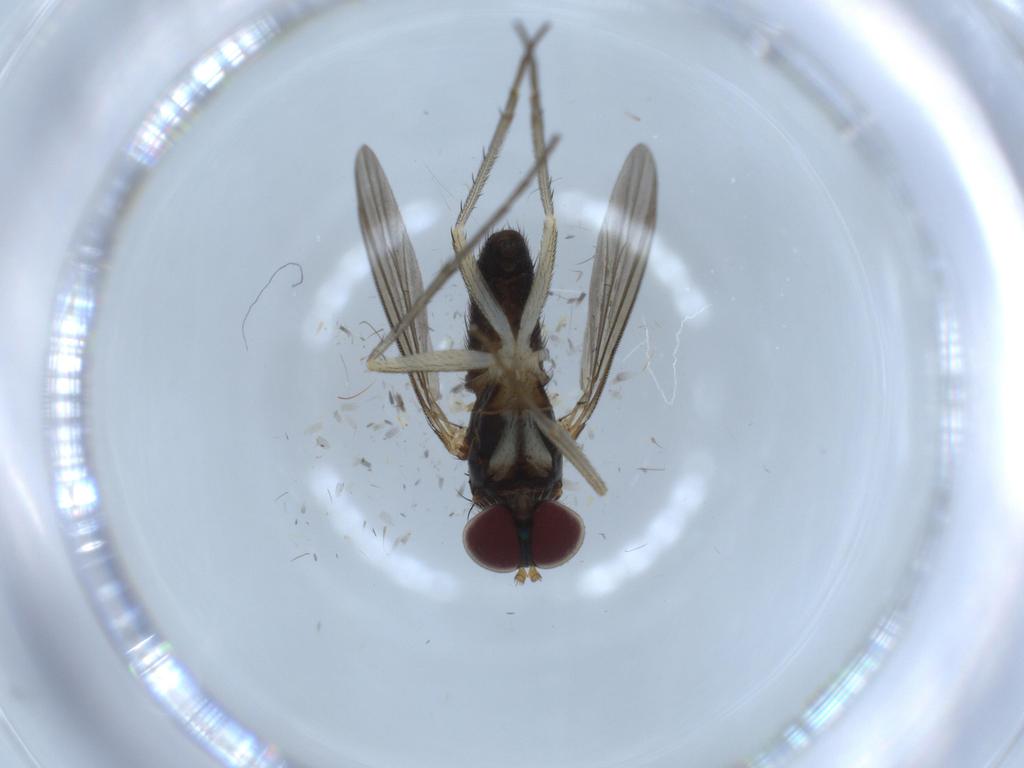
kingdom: Animalia
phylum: Arthropoda
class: Insecta
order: Diptera
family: Dolichopodidae
